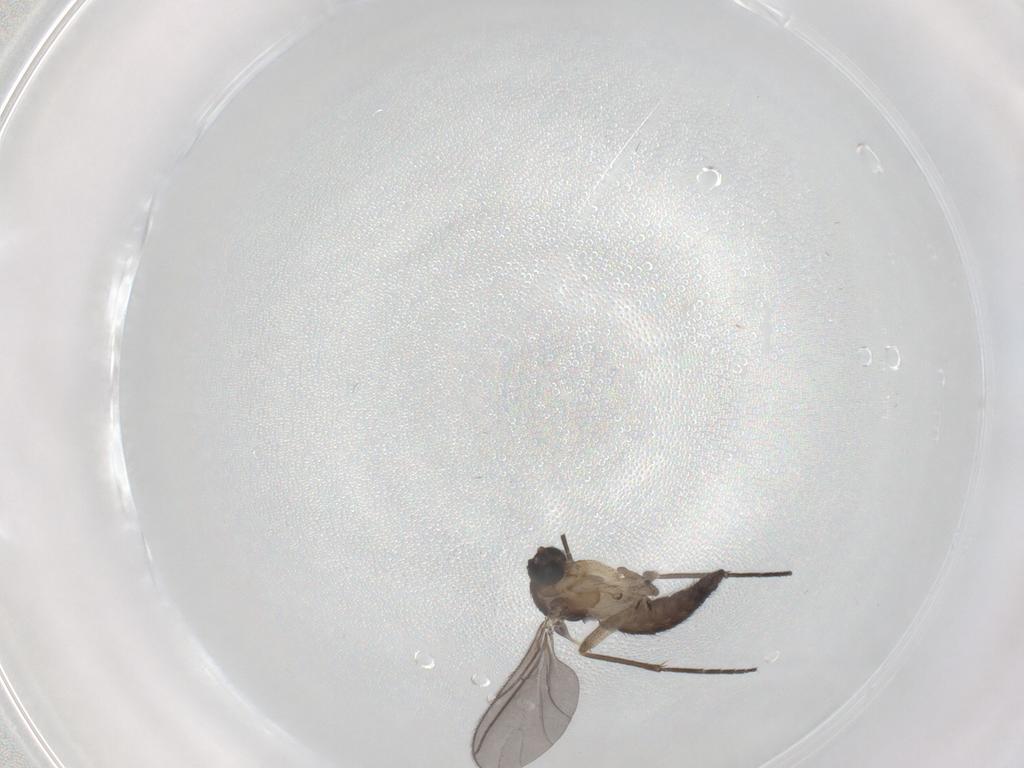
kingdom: Animalia
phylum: Arthropoda
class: Insecta
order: Diptera
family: Sciaridae
